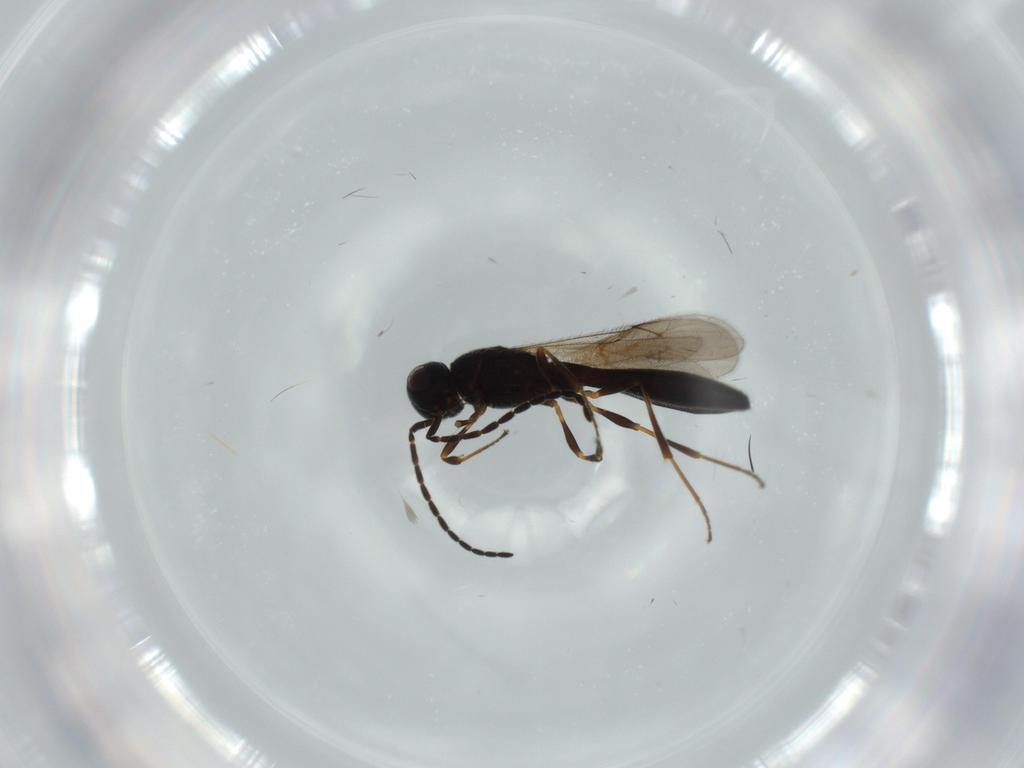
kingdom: Animalia
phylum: Arthropoda
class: Insecta
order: Hymenoptera
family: Scelionidae
